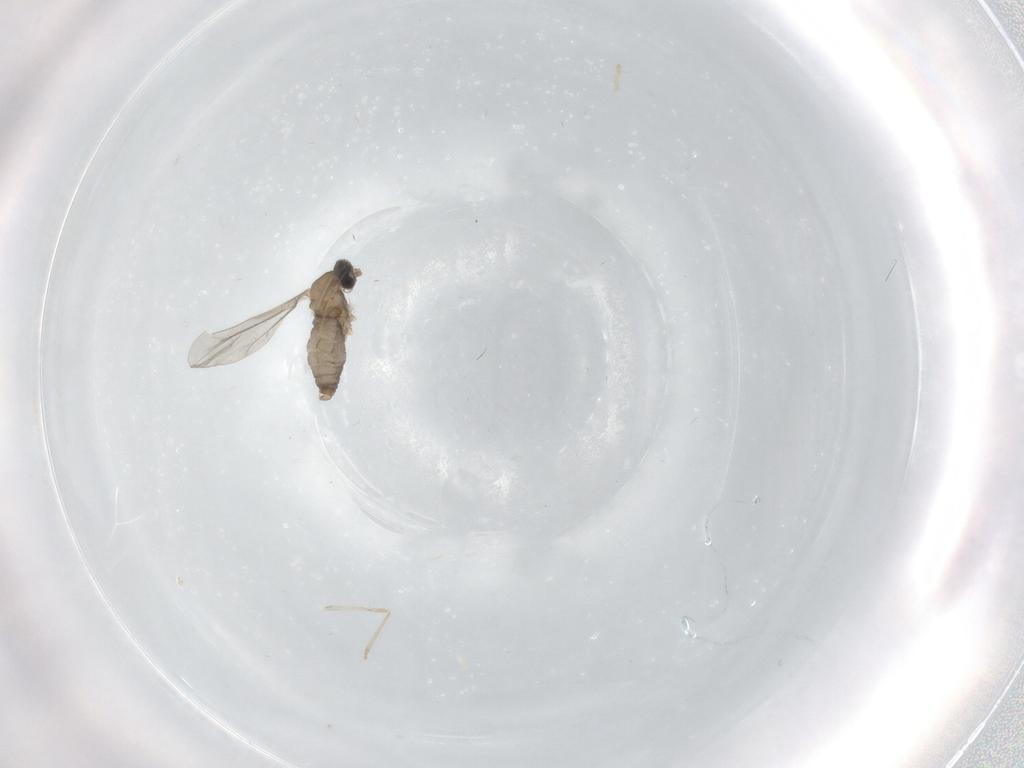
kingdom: Animalia
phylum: Arthropoda
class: Insecta
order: Diptera
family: Cecidomyiidae
